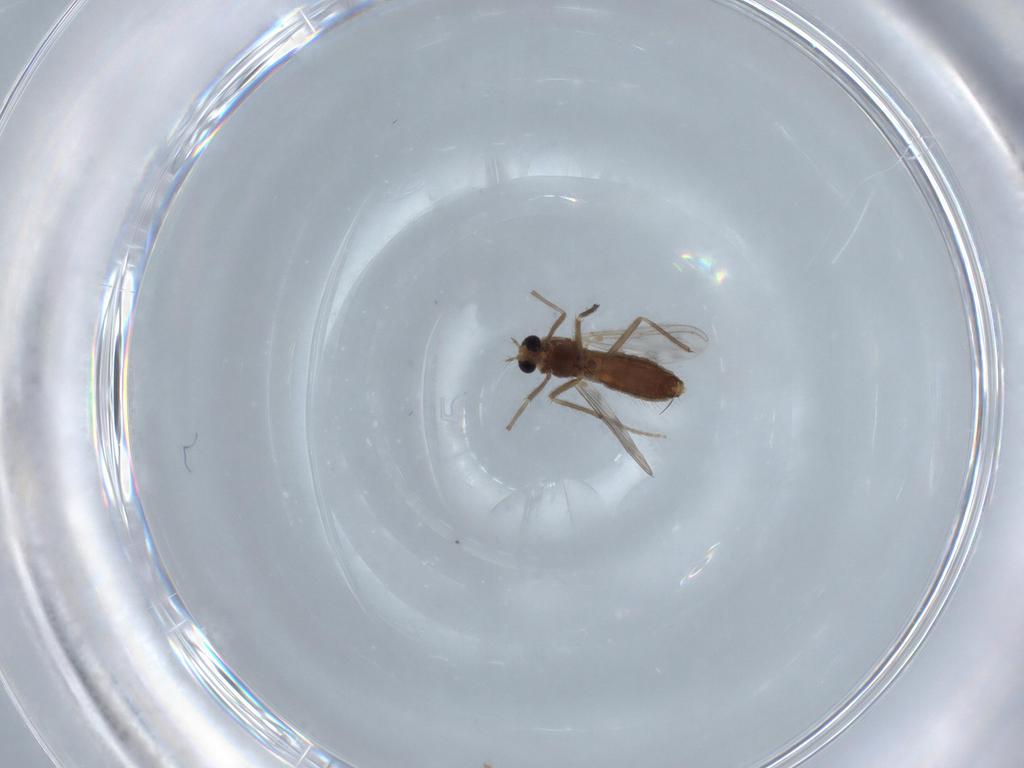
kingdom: Animalia
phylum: Arthropoda
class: Insecta
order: Diptera
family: Chironomidae
